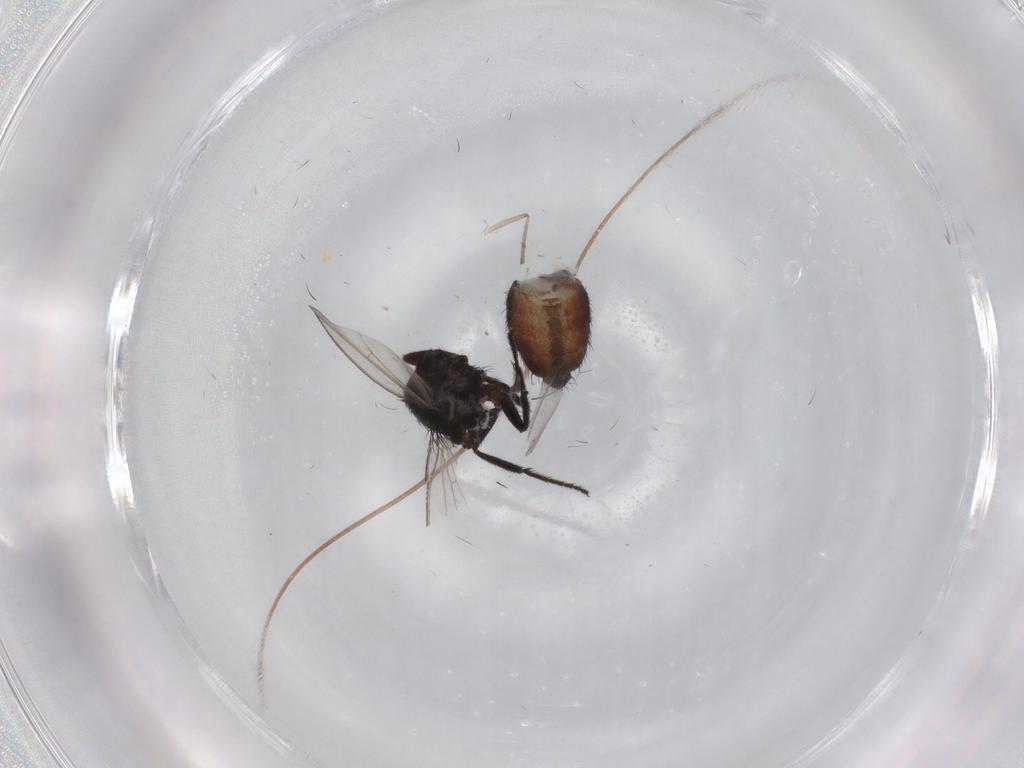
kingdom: Animalia
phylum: Arthropoda
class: Insecta
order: Diptera
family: Milichiidae
